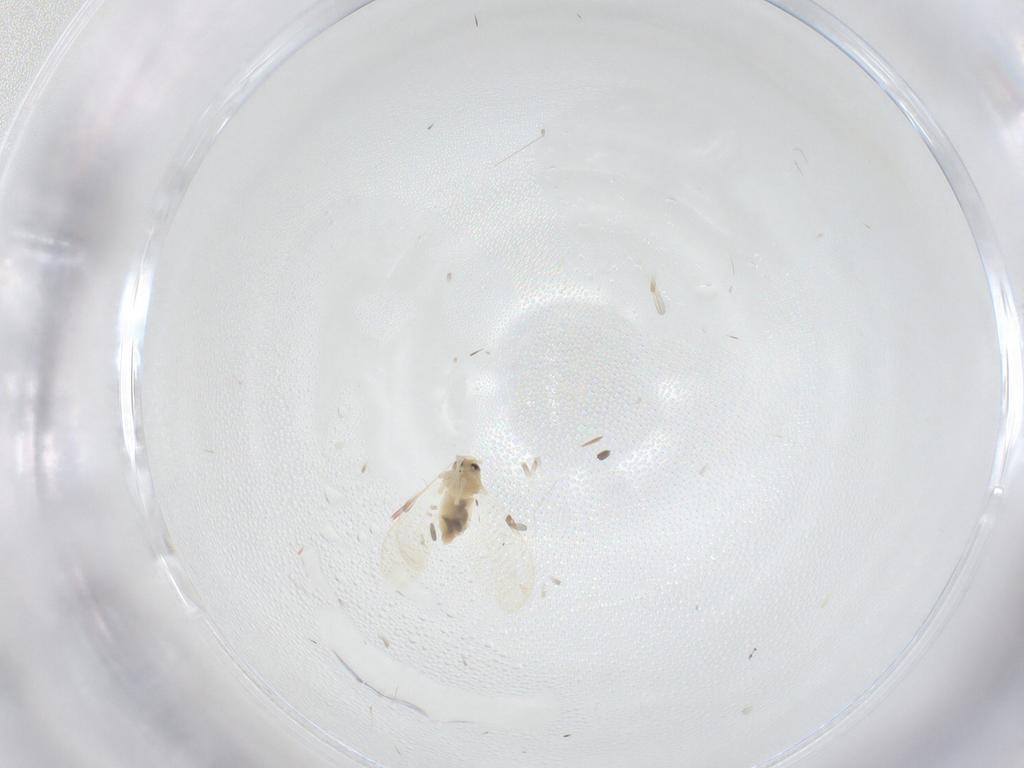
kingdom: Animalia
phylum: Arthropoda
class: Insecta
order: Hemiptera
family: Aleyrodidae
